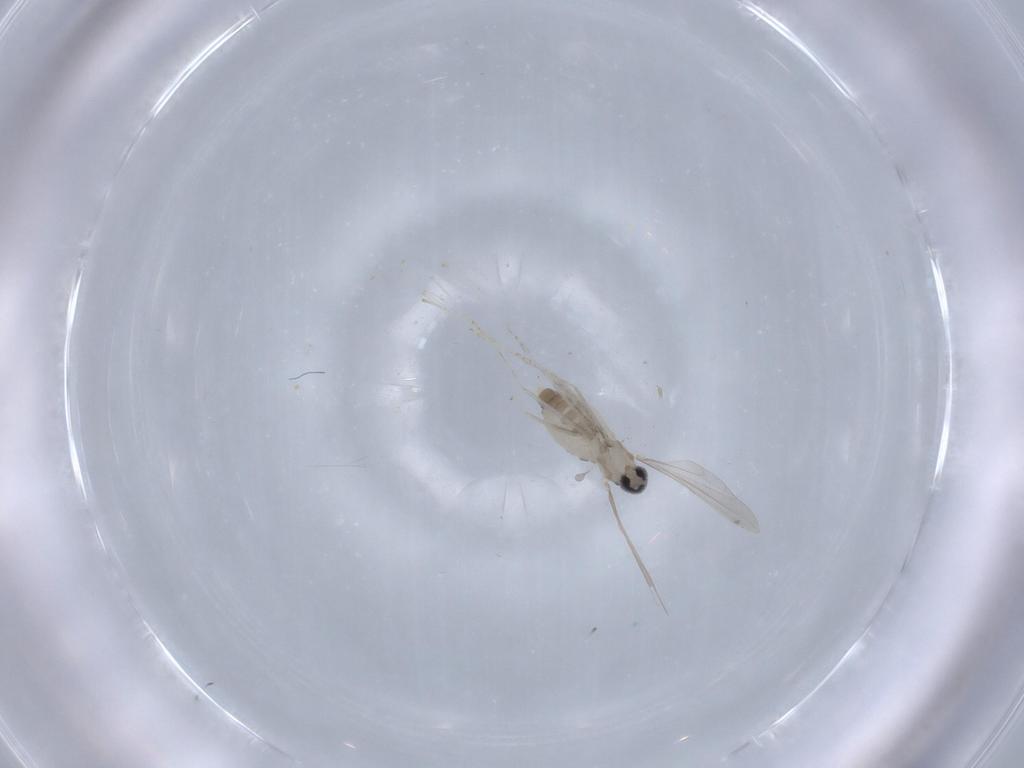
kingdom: Animalia
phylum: Arthropoda
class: Insecta
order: Diptera
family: Cecidomyiidae
